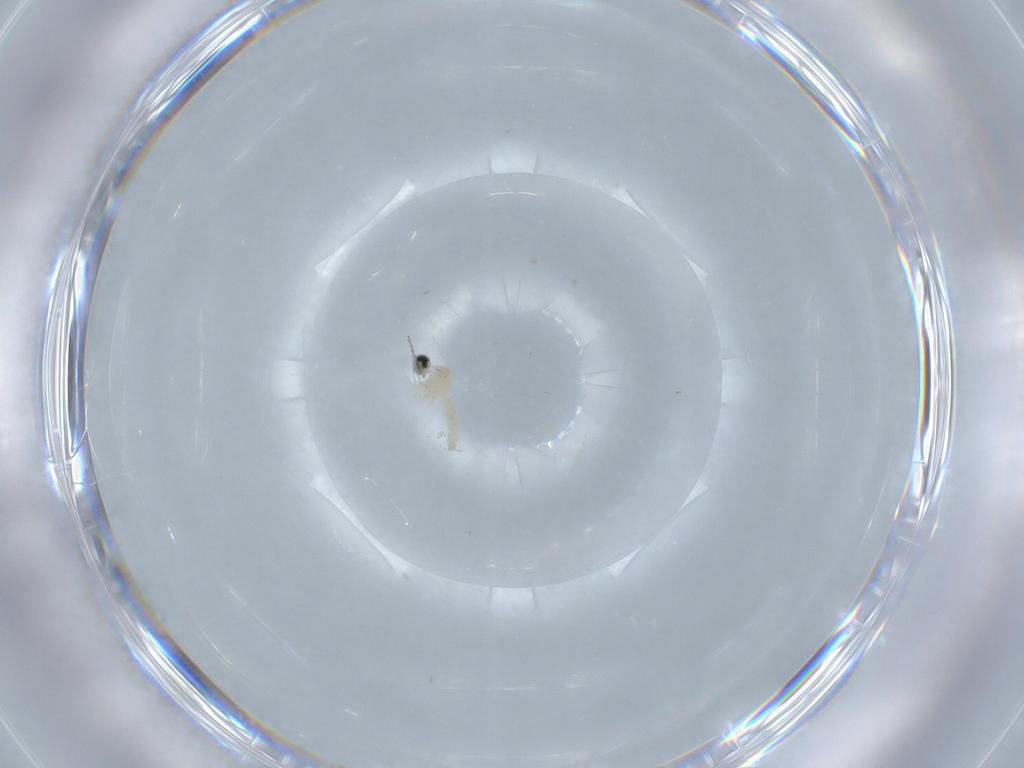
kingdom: Animalia
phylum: Arthropoda
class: Insecta
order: Diptera
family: Cecidomyiidae
